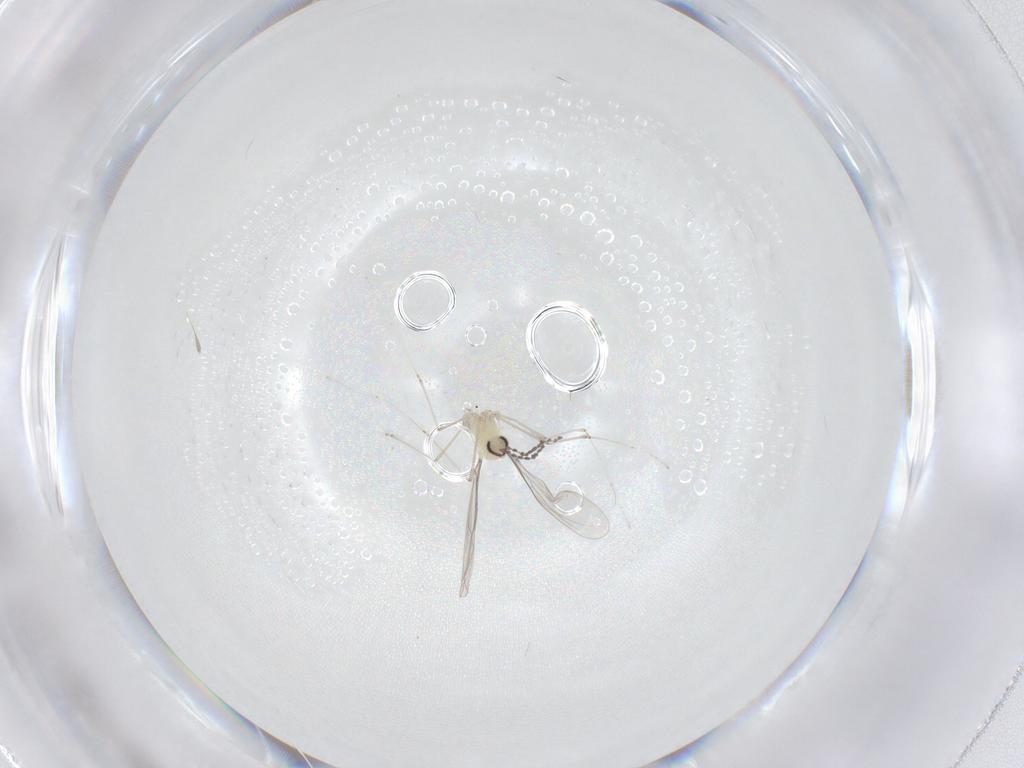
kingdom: Animalia
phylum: Arthropoda
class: Insecta
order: Diptera
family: Cecidomyiidae
